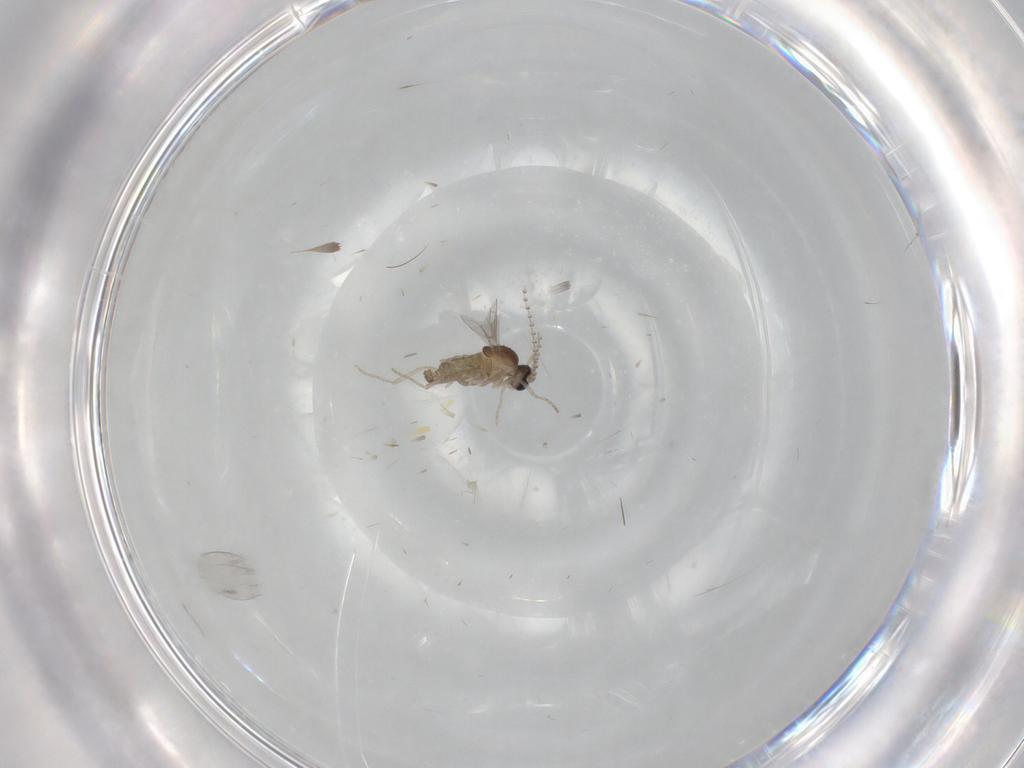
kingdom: Animalia
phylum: Arthropoda
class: Insecta
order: Diptera
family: Cecidomyiidae
